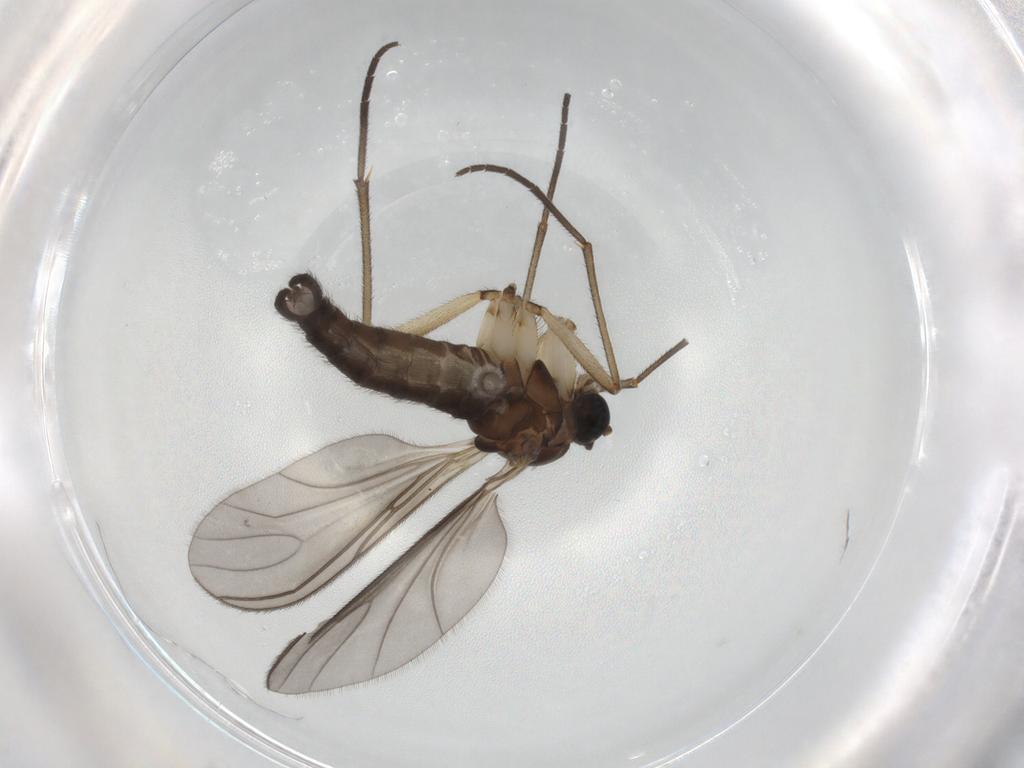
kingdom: Animalia
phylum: Arthropoda
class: Insecta
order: Diptera
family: Sciaridae
